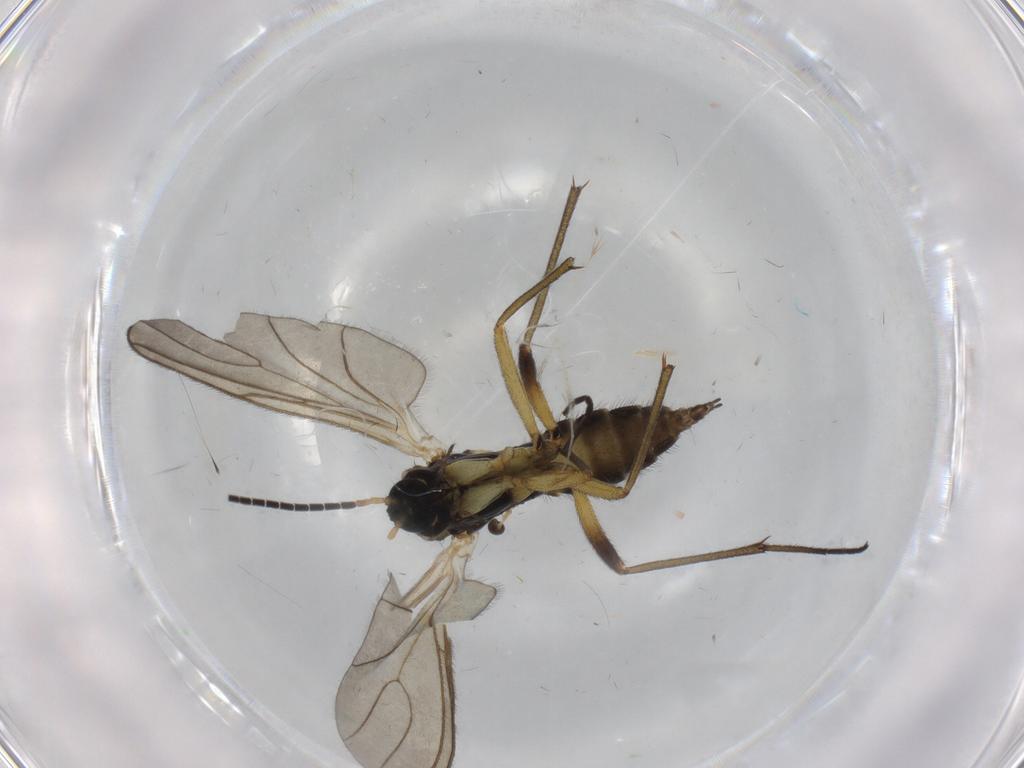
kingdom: Animalia
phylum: Arthropoda
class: Insecta
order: Diptera
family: Sciaridae
